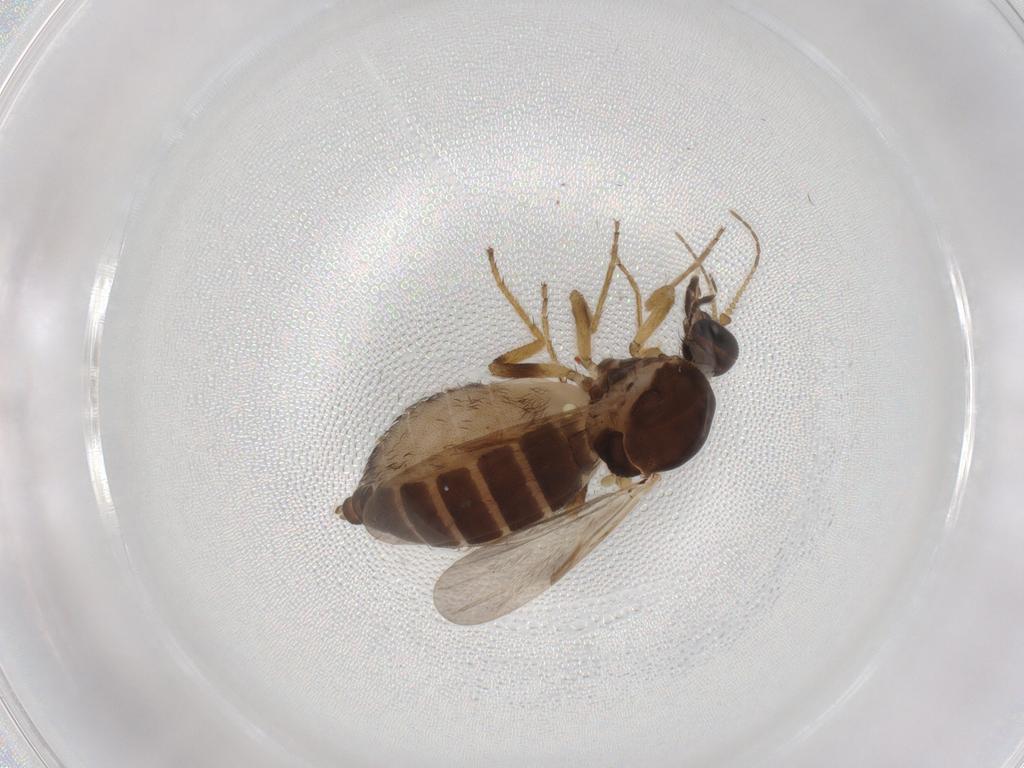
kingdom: Animalia
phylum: Arthropoda
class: Insecta
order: Diptera
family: Ceratopogonidae
